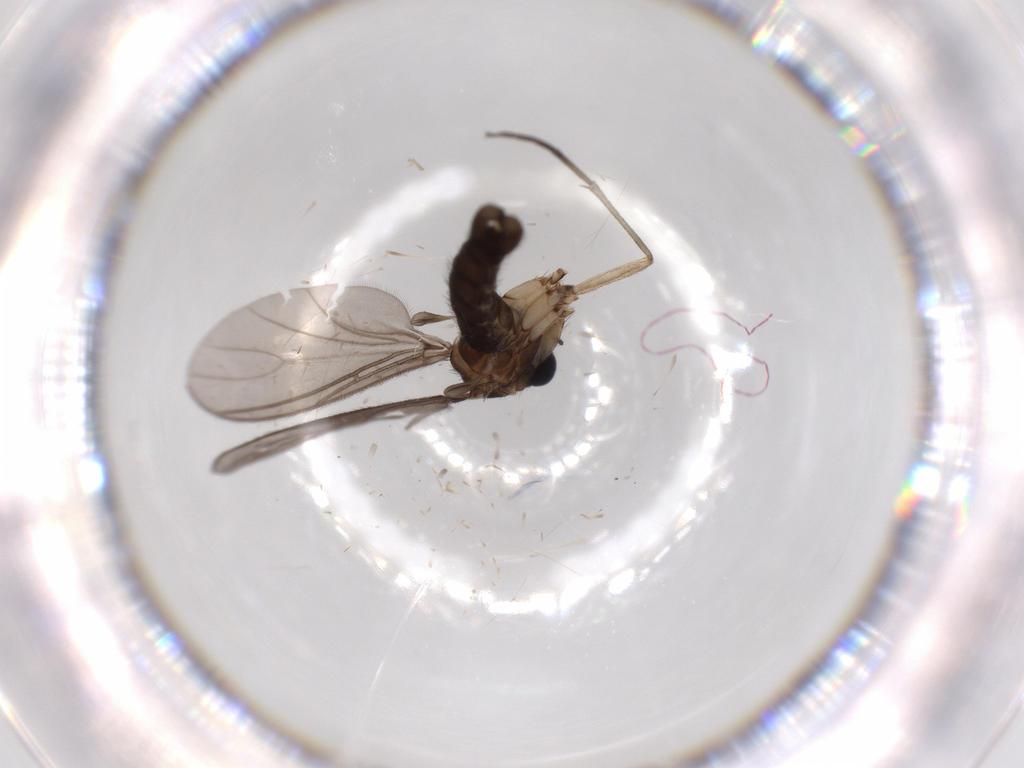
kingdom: Animalia
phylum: Arthropoda
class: Insecta
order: Diptera
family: Sciaridae
